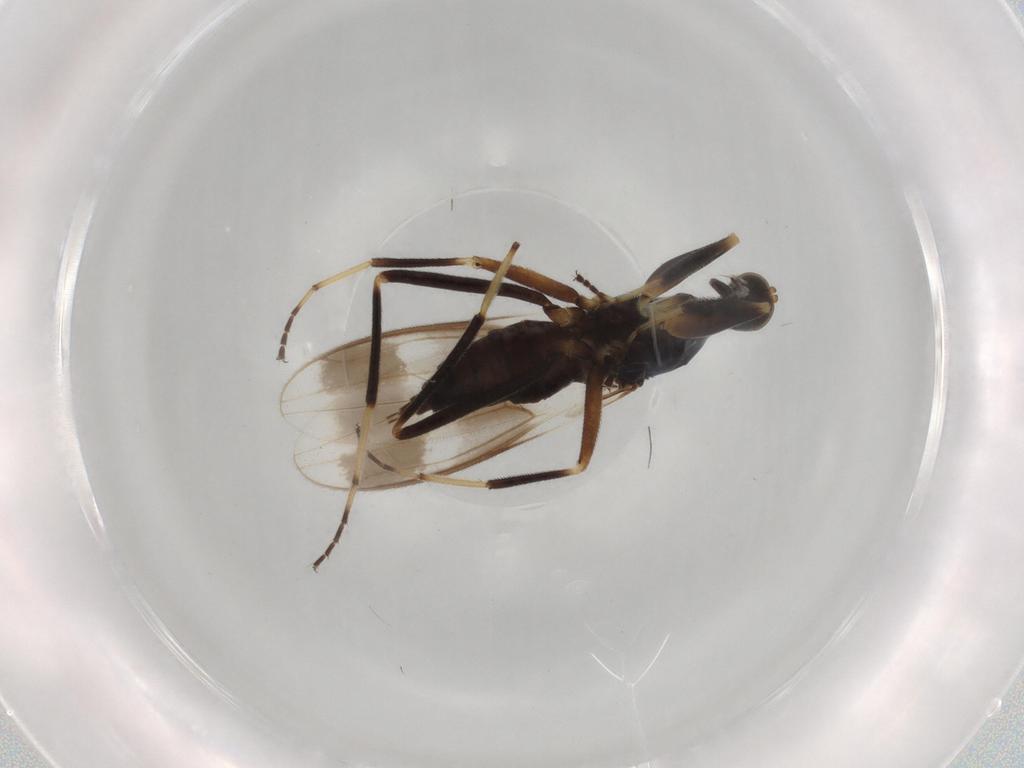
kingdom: Animalia
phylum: Arthropoda
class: Insecta
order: Diptera
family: Hybotidae
